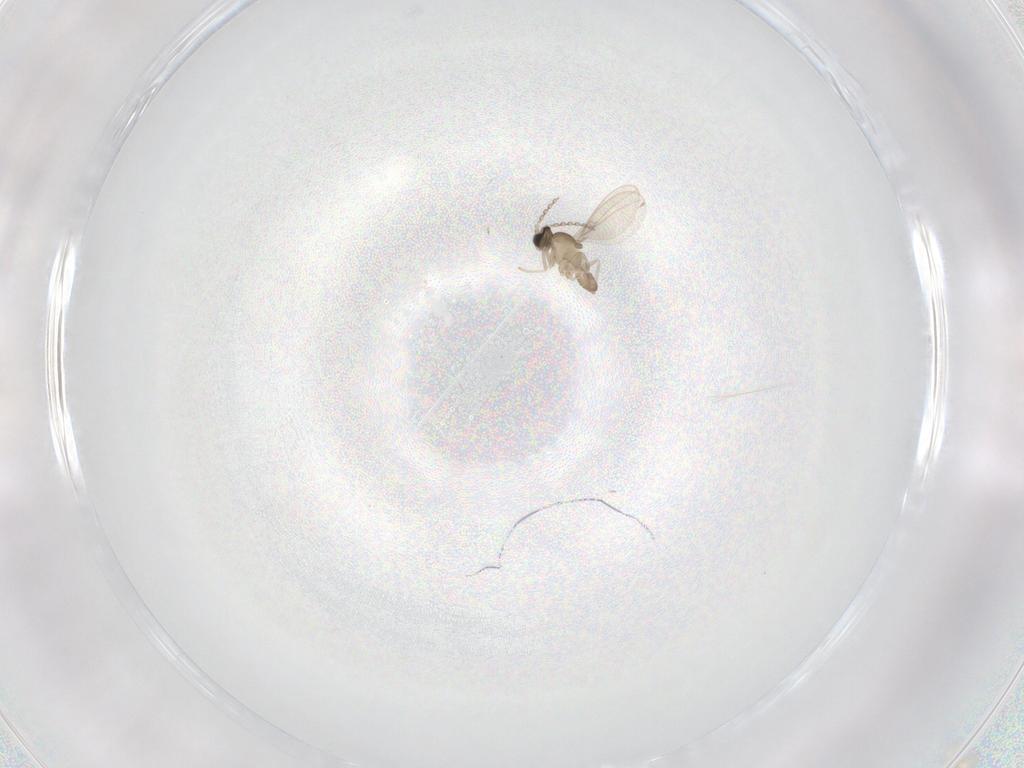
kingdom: Animalia
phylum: Arthropoda
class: Insecta
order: Diptera
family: Cecidomyiidae
